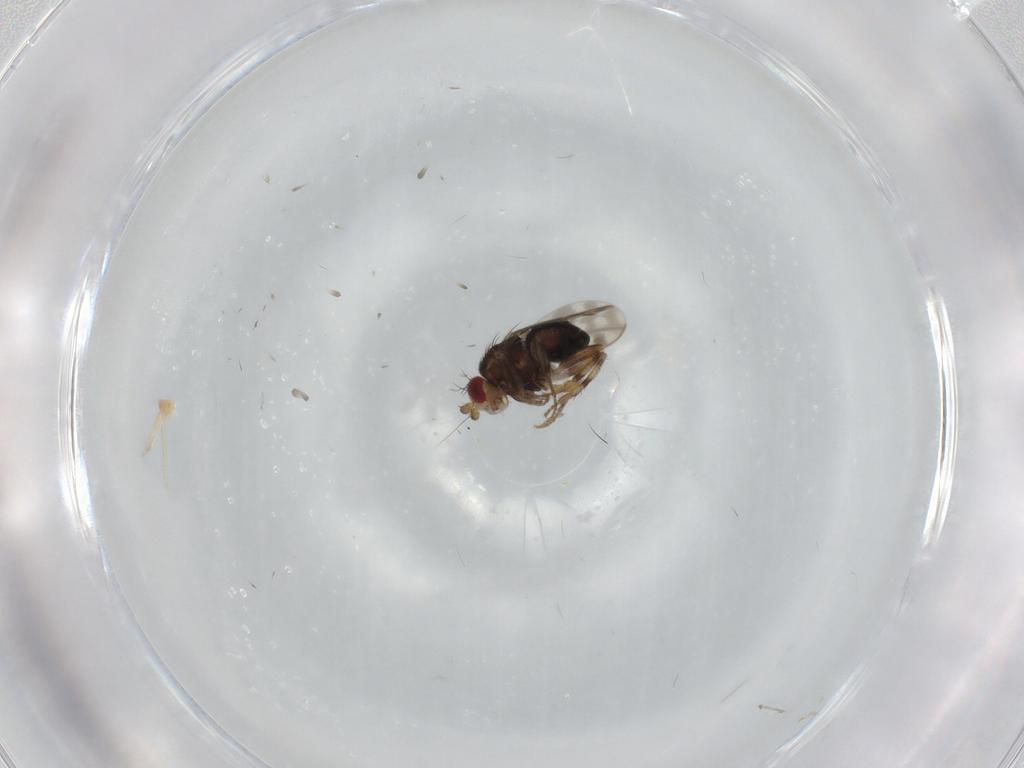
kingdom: Animalia
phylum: Arthropoda
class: Insecta
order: Diptera
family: Sphaeroceridae
